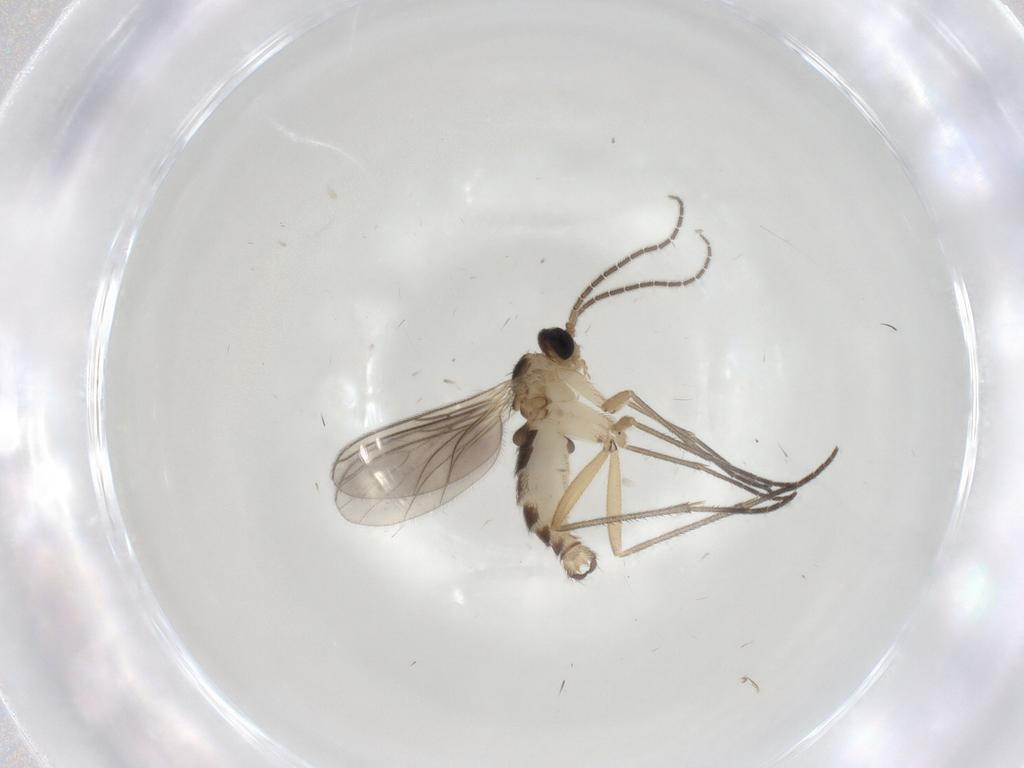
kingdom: Animalia
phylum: Arthropoda
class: Insecta
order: Diptera
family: Sciaridae
